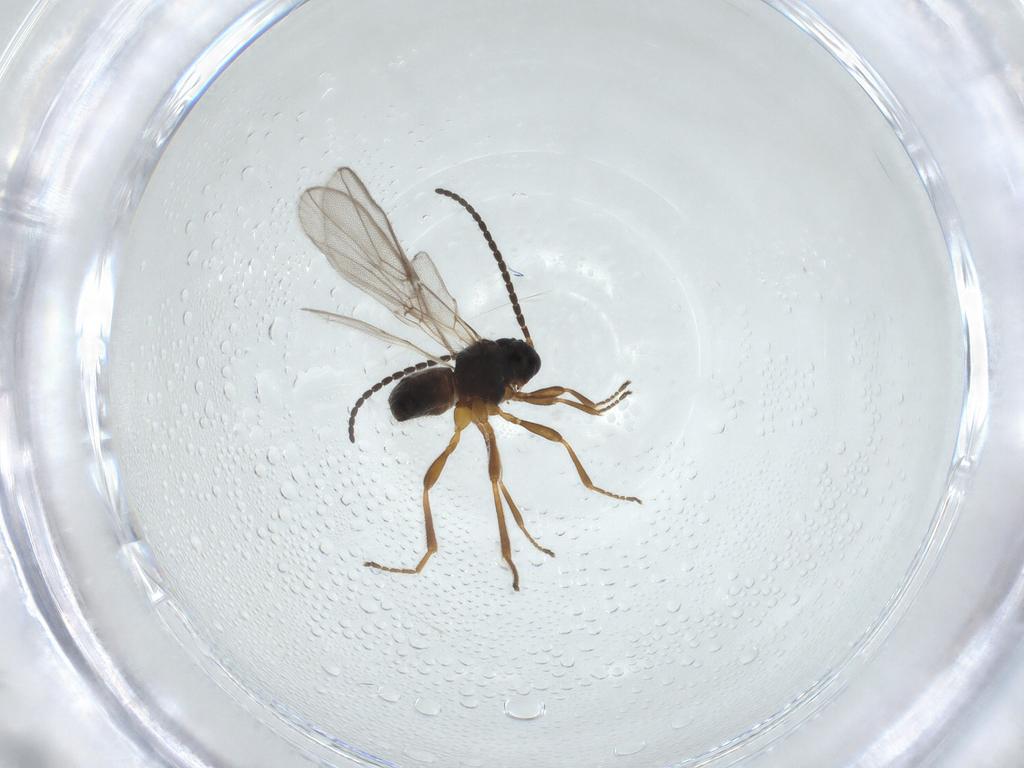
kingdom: Animalia
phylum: Arthropoda
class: Insecta
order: Hymenoptera
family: Braconidae
